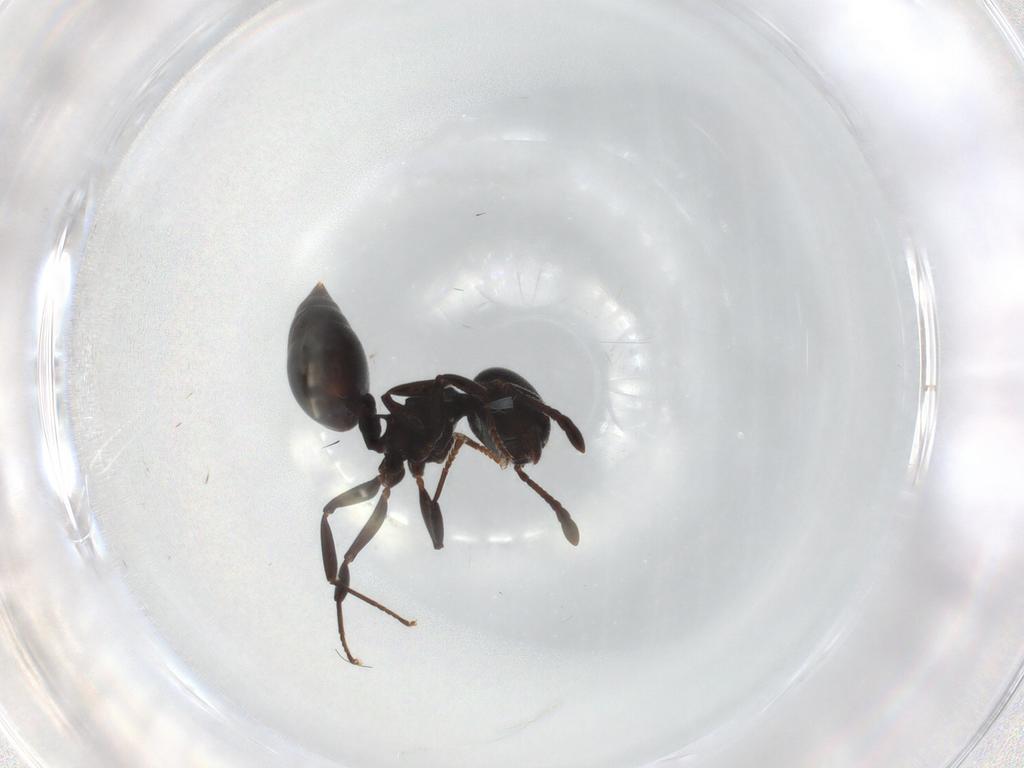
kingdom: Animalia
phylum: Arthropoda
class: Insecta
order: Hymenoptera
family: Formicidae
